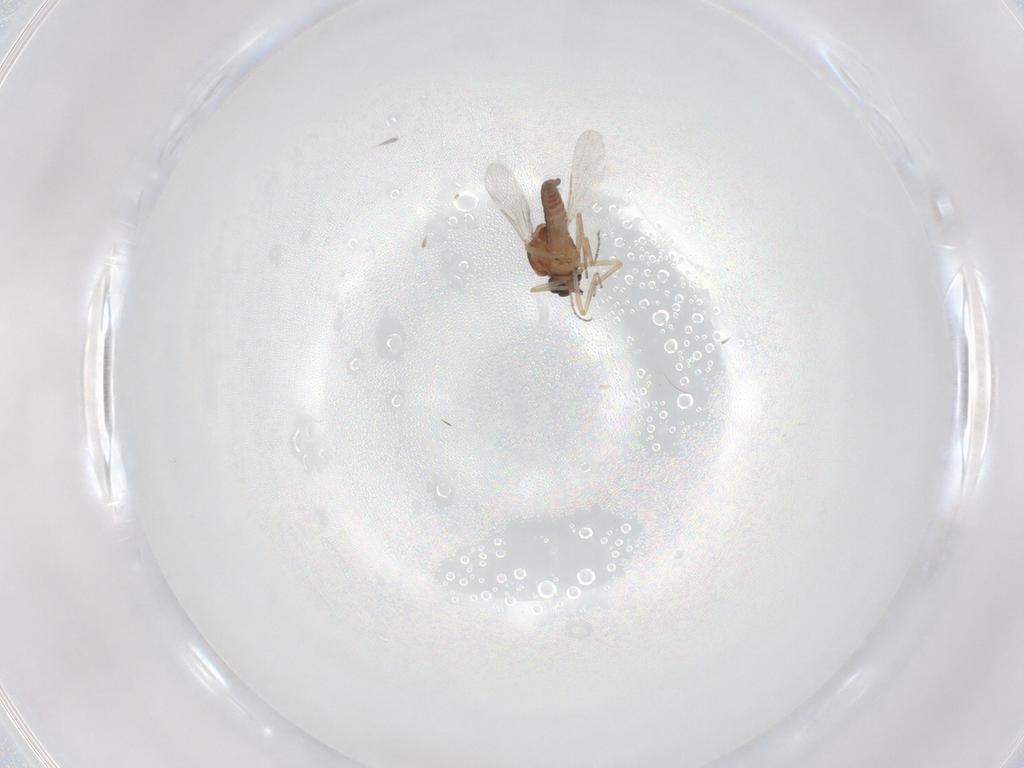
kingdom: Animalia
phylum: Arthropoda
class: Insecta
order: Diptera
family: Ceratopogonidae
